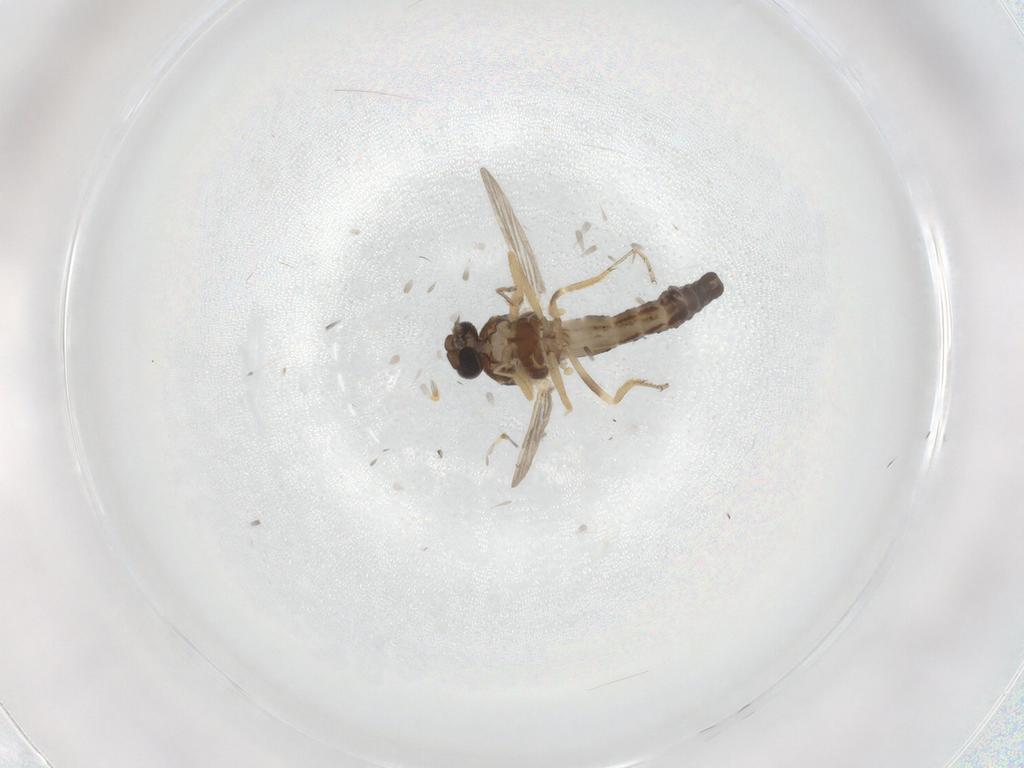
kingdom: Animalia
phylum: Arthropoda
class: Insecta
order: Diptera
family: Ceratopogonidae
